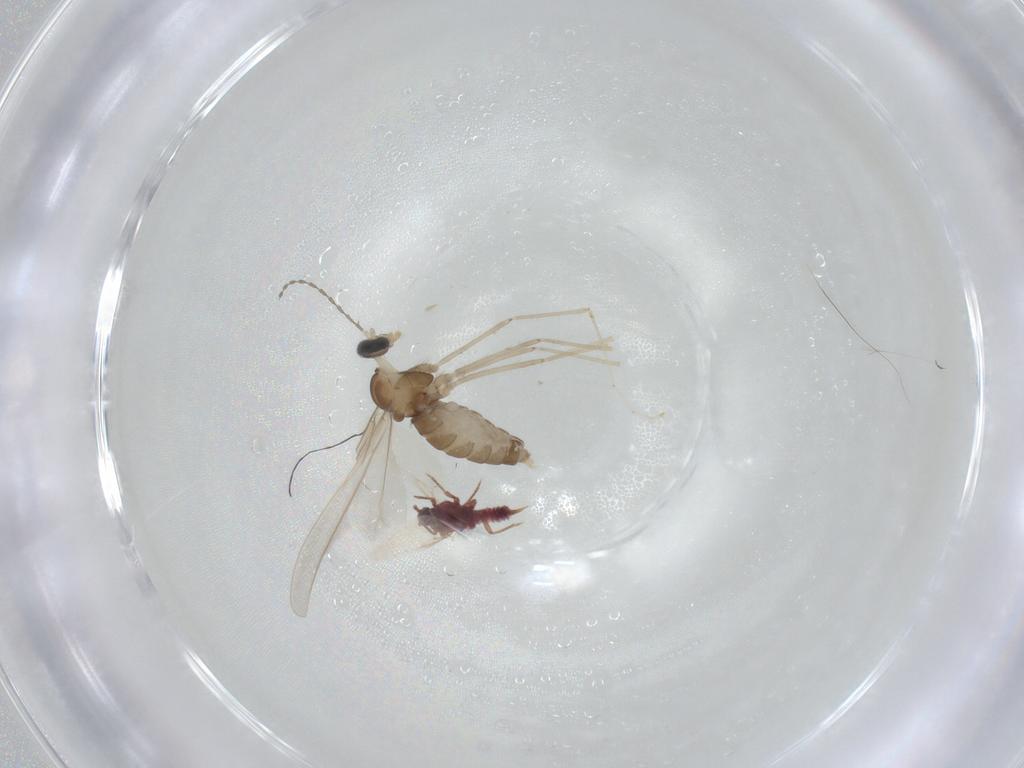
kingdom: Animalia
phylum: Arthropoda
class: Insecta
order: Diptera
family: Cecidomyiidae
